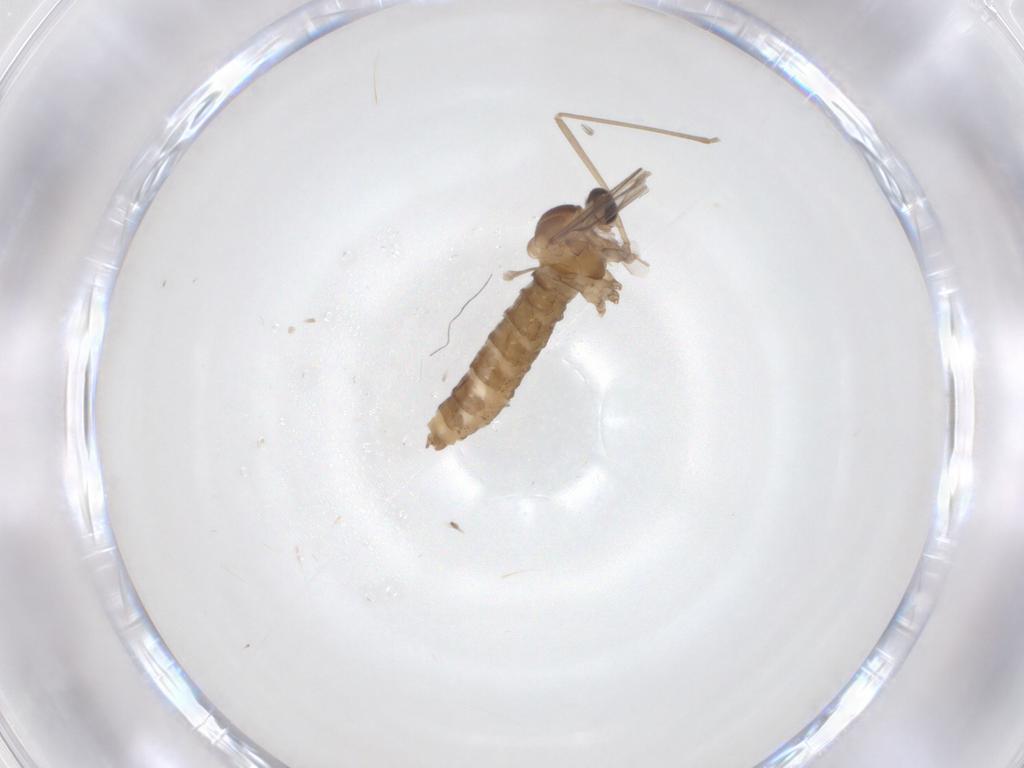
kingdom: Animalia
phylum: Arthropoda
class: Insecta
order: Diptera
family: Cecidomyiidae
